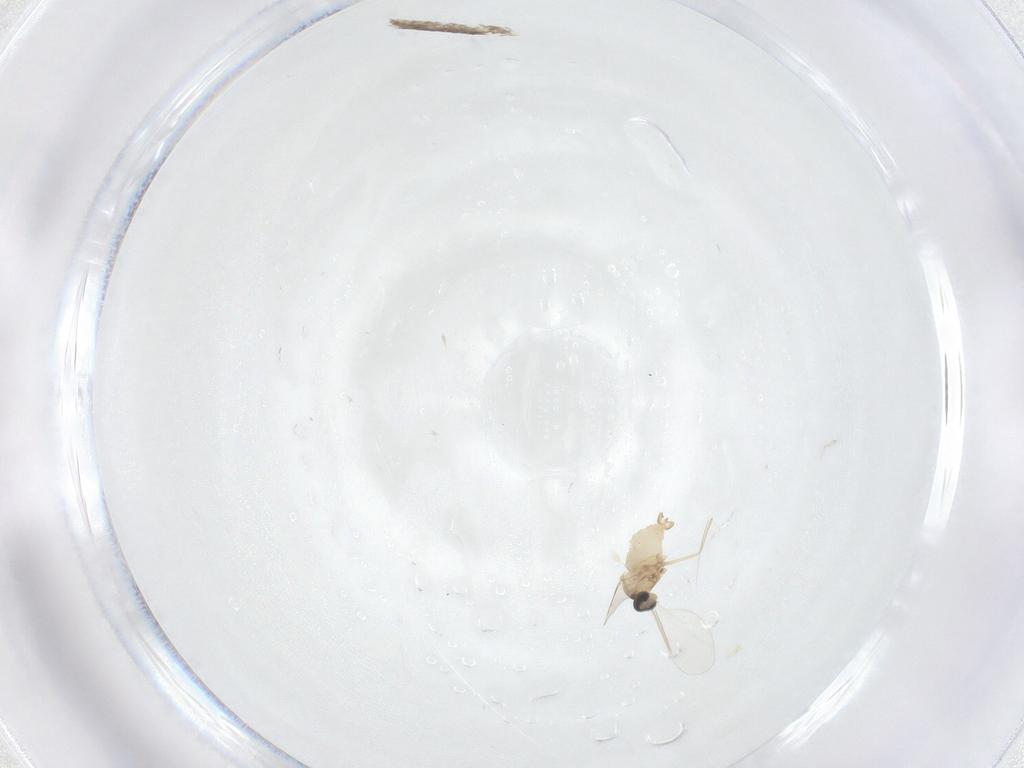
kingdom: Animalia
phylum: Arthropoda
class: Insecta
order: Diptera
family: Cecidomyiidae
